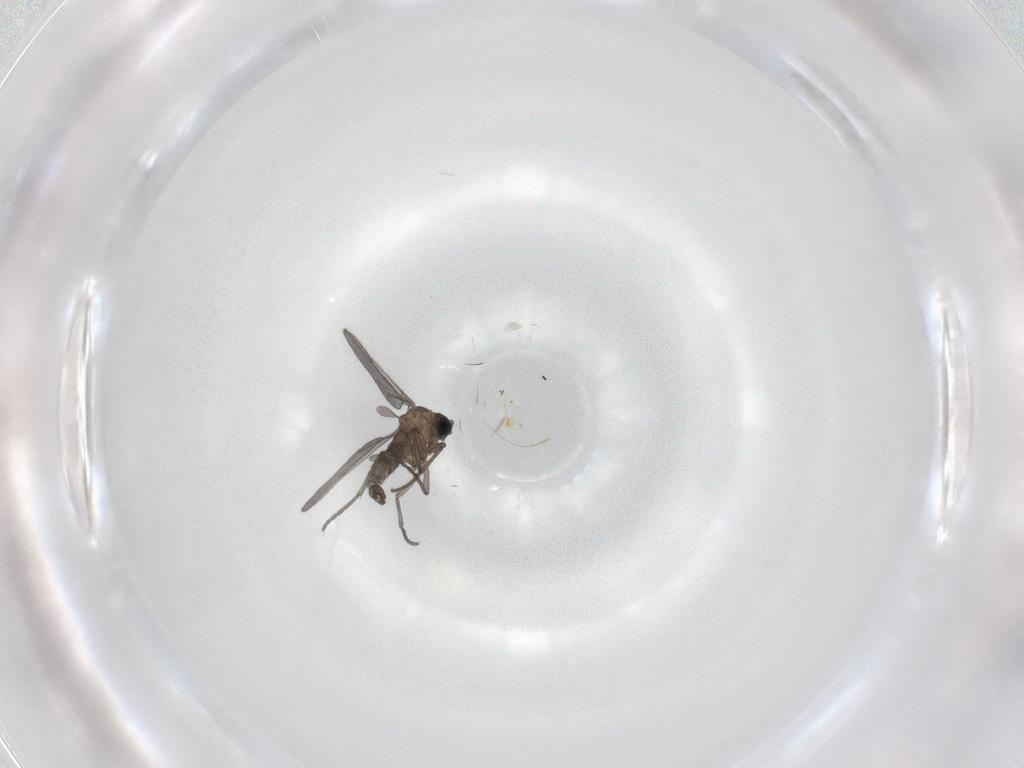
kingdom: Animalia
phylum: Arthropoda
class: Insecta
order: Diptera
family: Sciaridae
